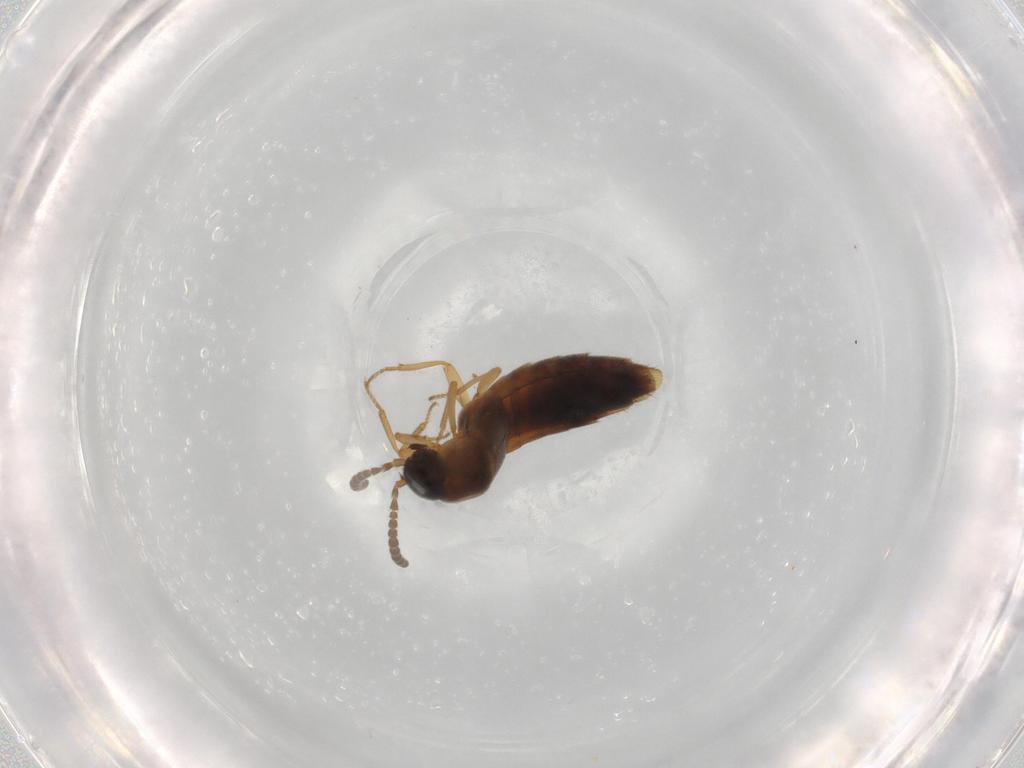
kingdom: Animalia
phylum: Arthropoda
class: Insecta
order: Coleoptera
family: Staphylinidae
